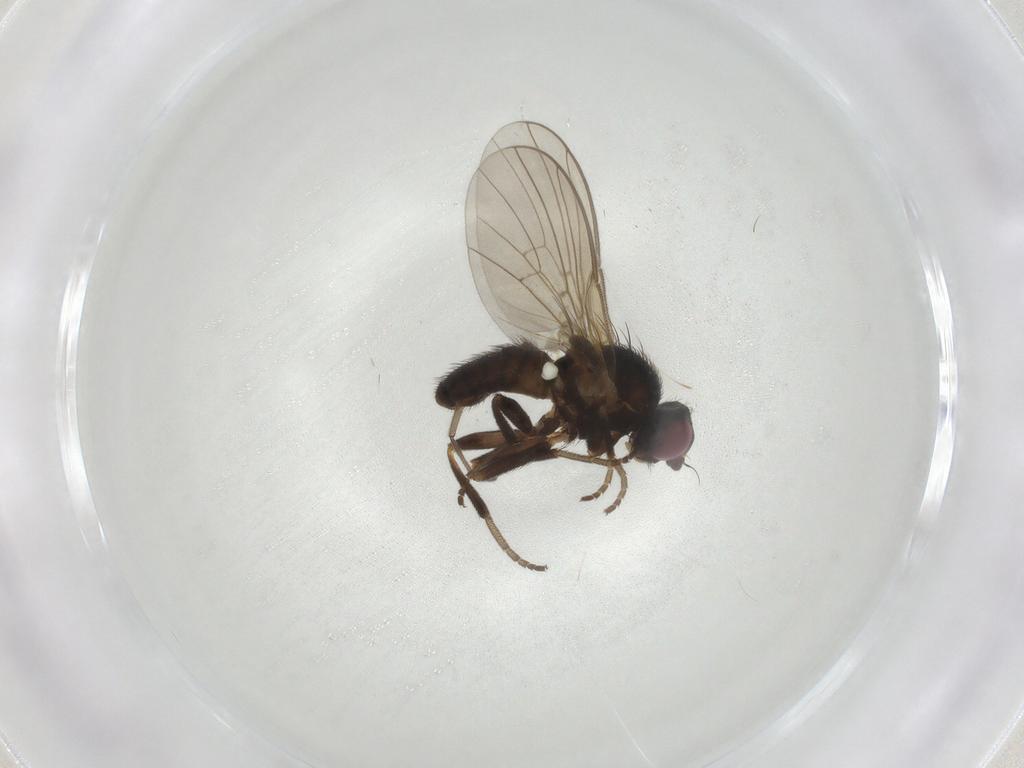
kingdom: Animalia
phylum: Arthropoda
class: Insecta
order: Diptera
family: Agromyzidae
